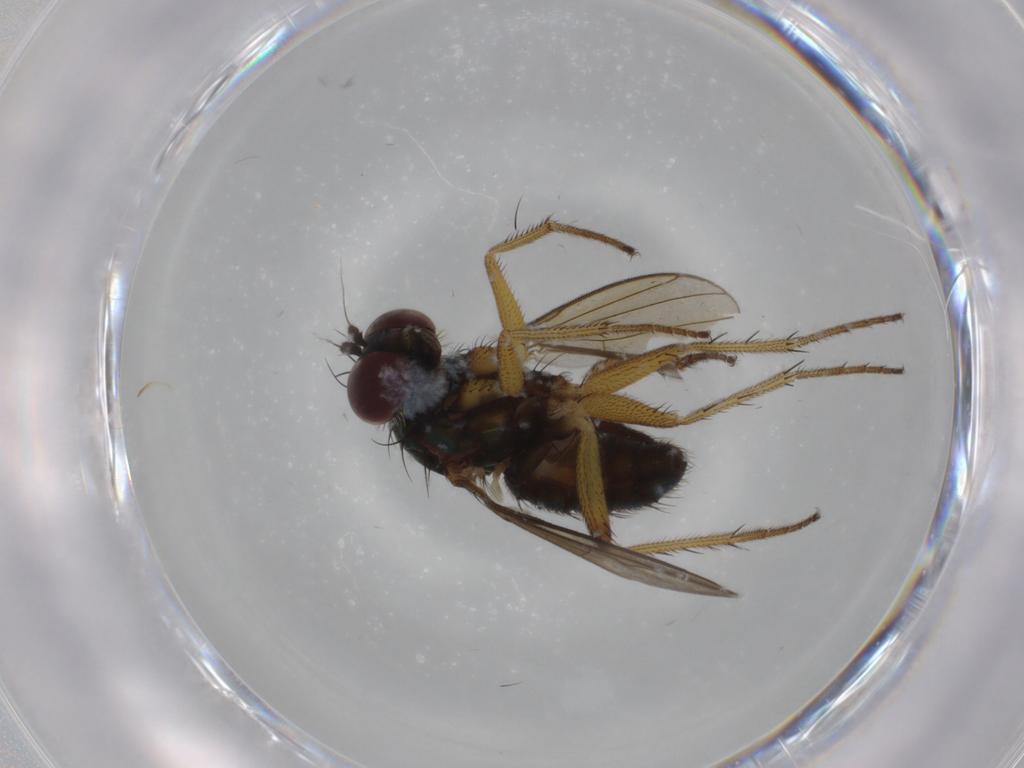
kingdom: Animalia
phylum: Arthropoda
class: Insecta
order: Diptera
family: Dolichopodidae
